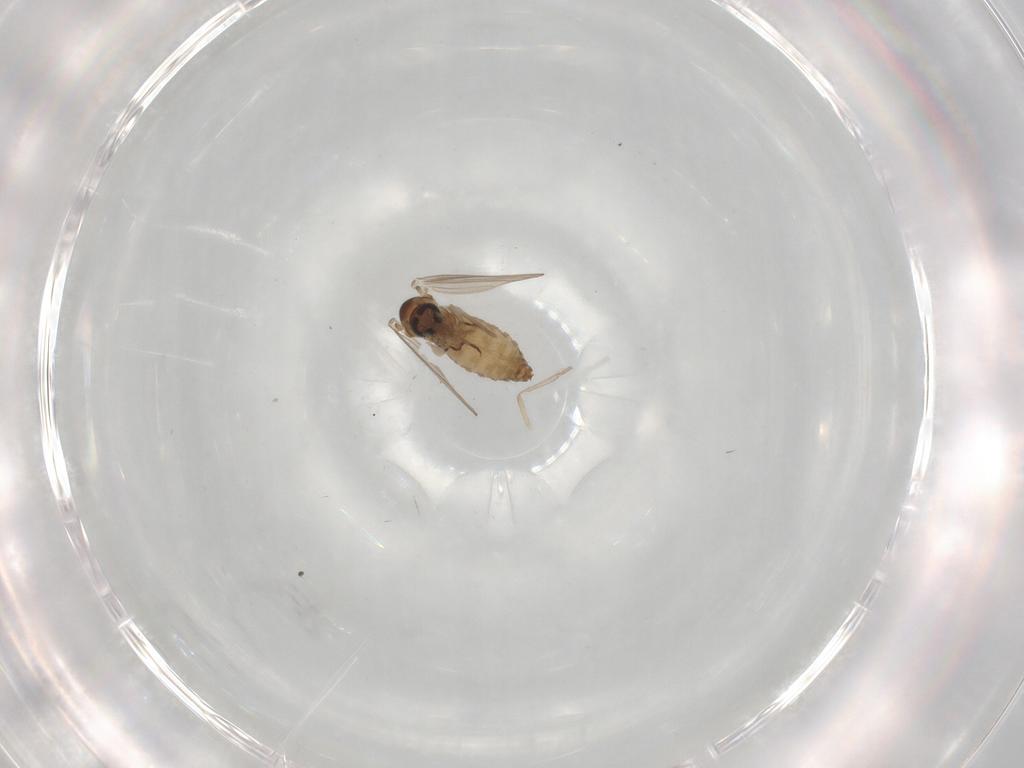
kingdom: Animalia
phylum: Arthropoda
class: Insecta
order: Diptera
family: Psychodidae
